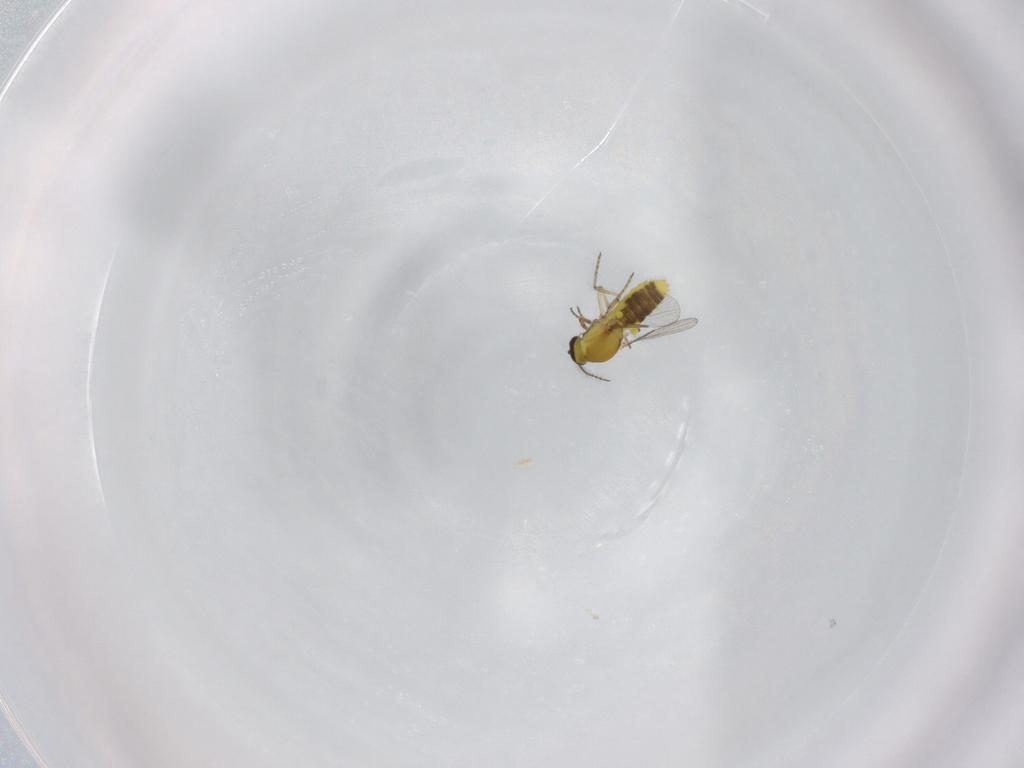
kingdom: Animalia
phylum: Arthropoda
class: Insecta
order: Diptera
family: Ceratopogonidae
